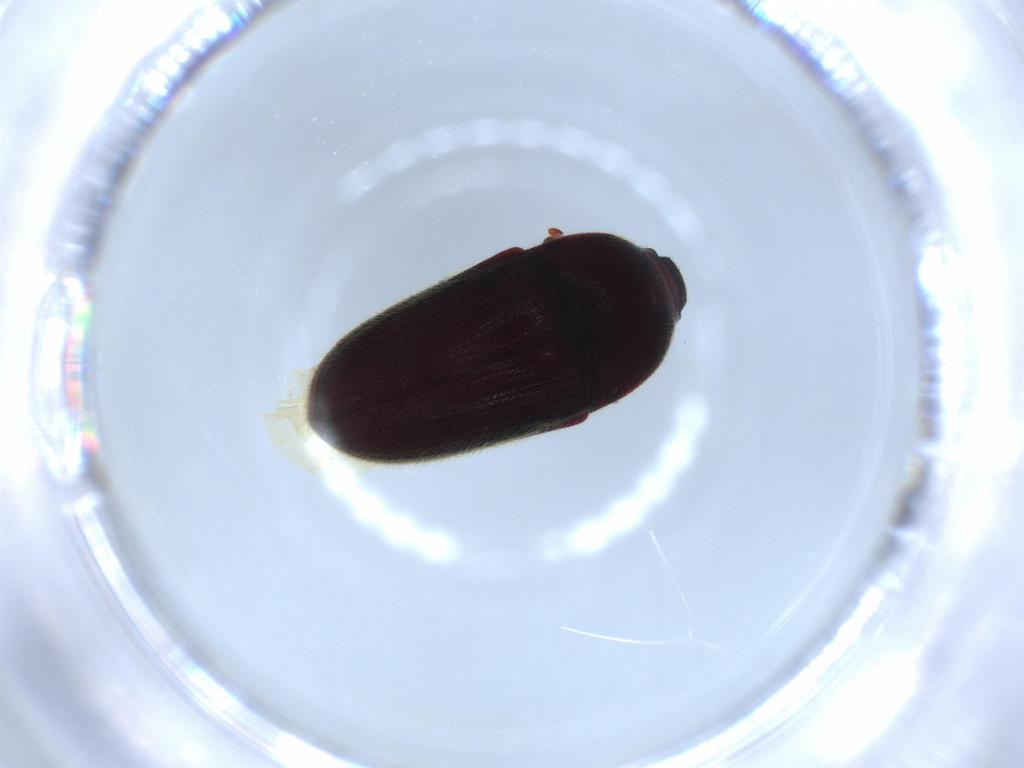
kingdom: Animalia
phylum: Arthropoda
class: Insecta
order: Coleoptera
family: Throscidae
